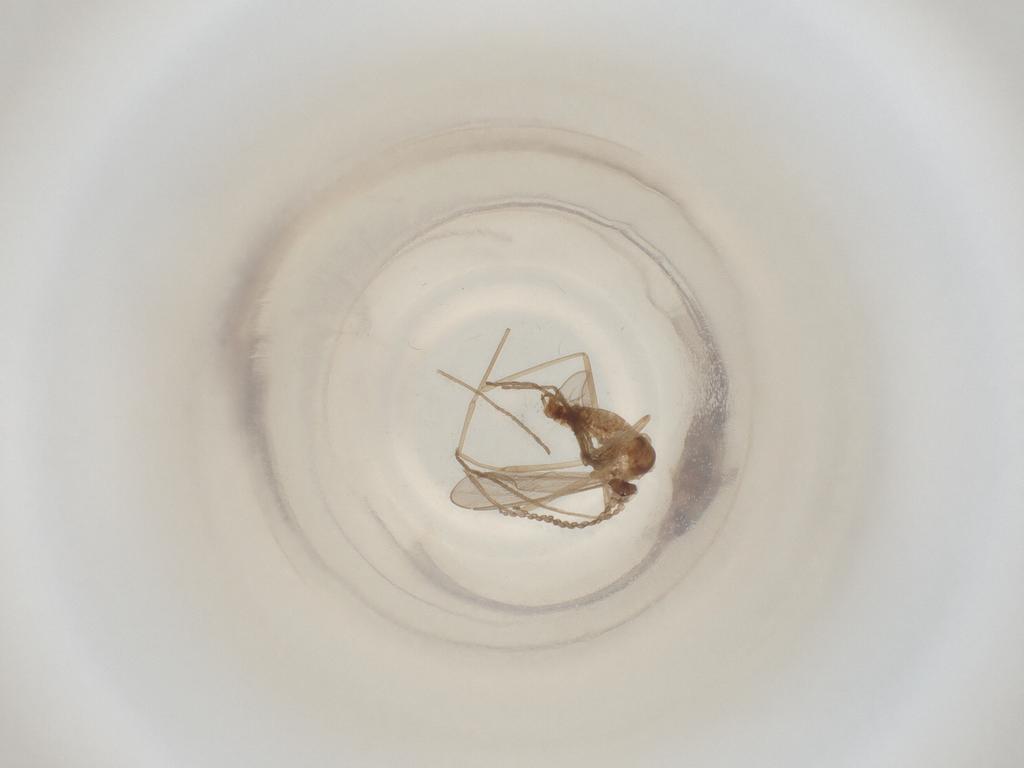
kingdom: Animalia
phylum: Arthropoda
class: Insecta
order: Diptera
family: Cecidomyiidae
